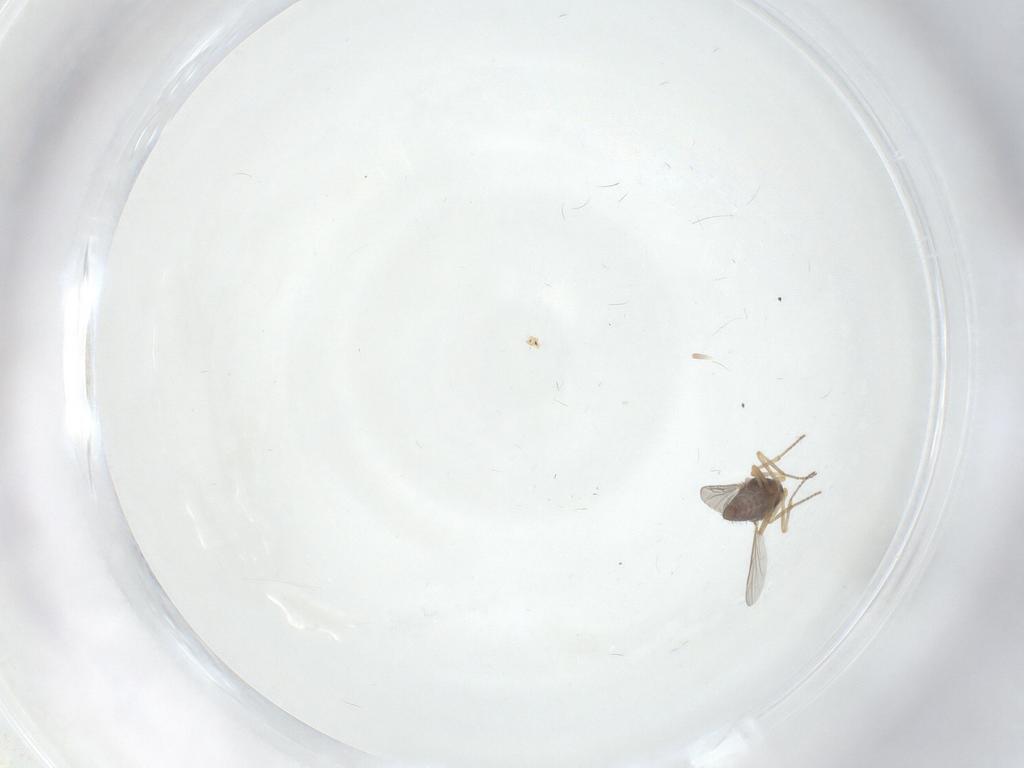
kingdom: Animalia
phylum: Arthropoda
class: Insecta
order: Diptera
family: Ceratopogonidae
